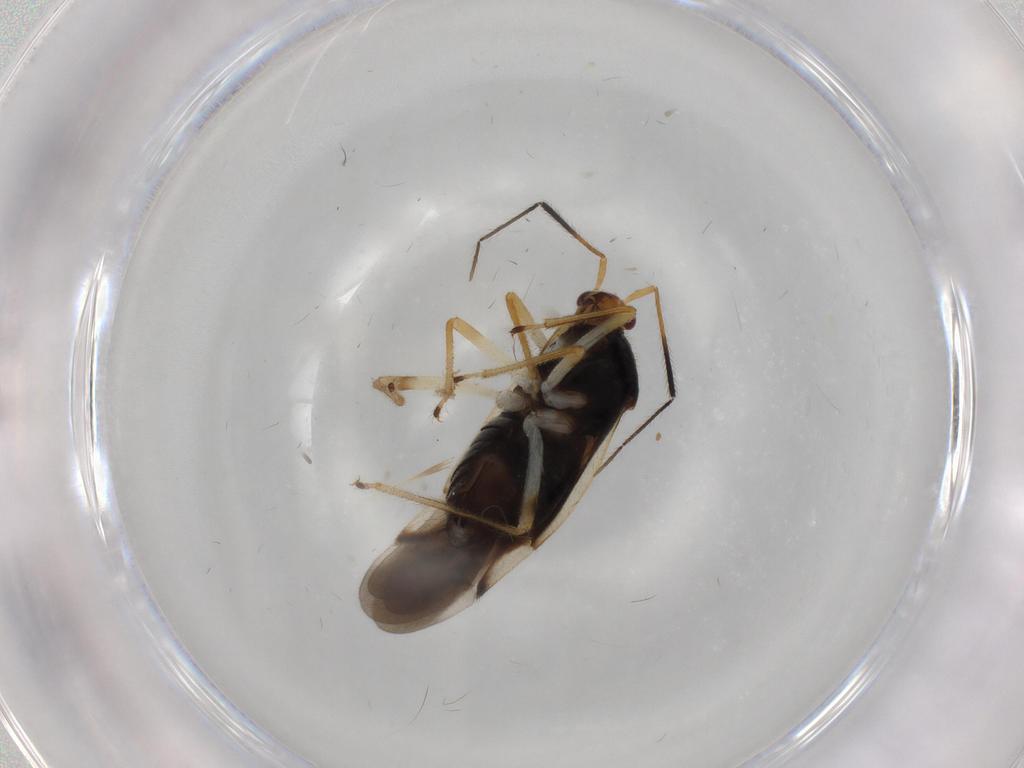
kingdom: Animalia
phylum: Arthropoda
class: Insecta
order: Hemiptera
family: Miridae
